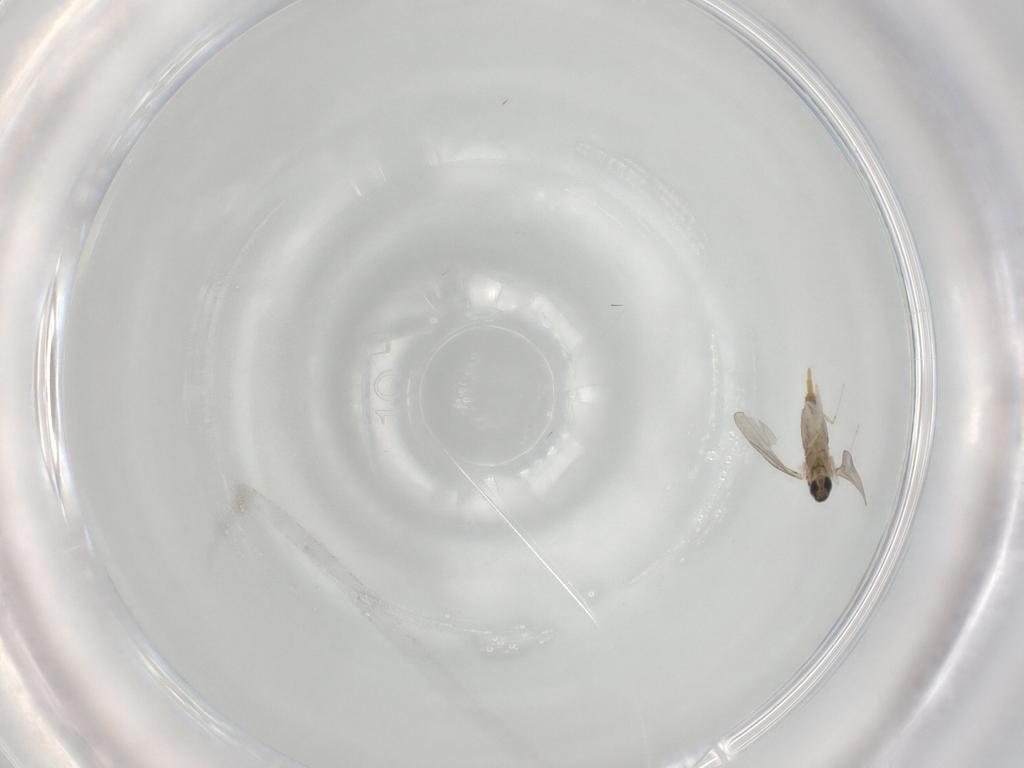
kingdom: Animalia
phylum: Arthropoda
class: Insecta
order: Diptera
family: Cecidomyiidae
